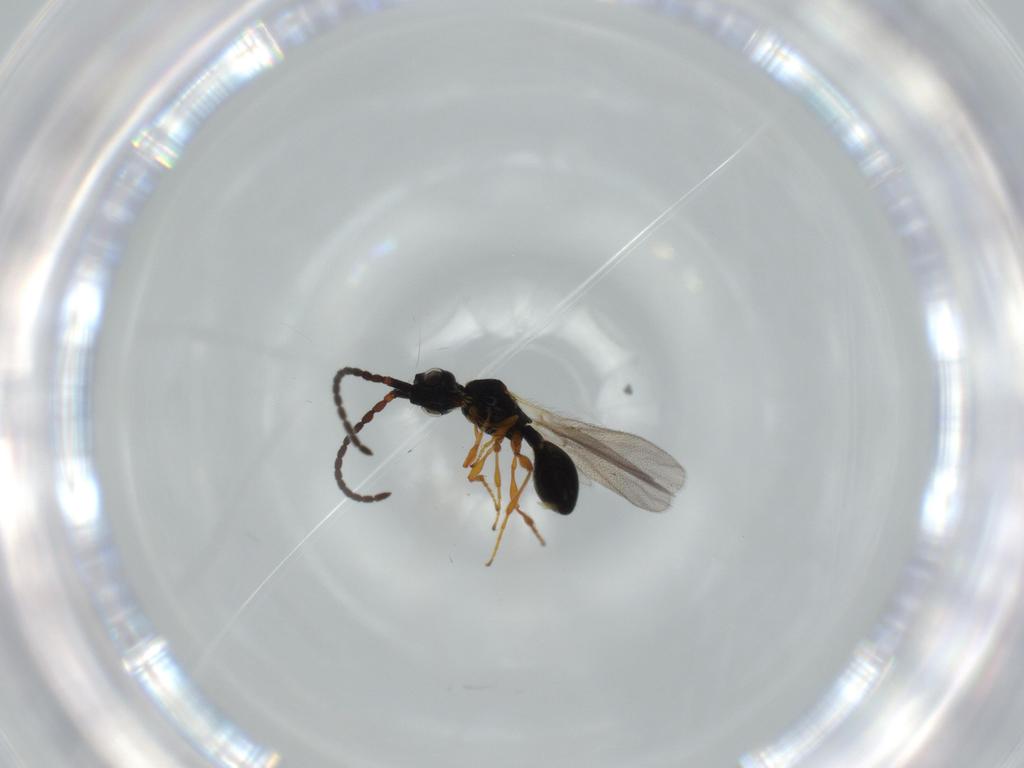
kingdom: Animalia
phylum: Arthropoda
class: Insecta
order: Hymenoptera
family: Diapriidae
